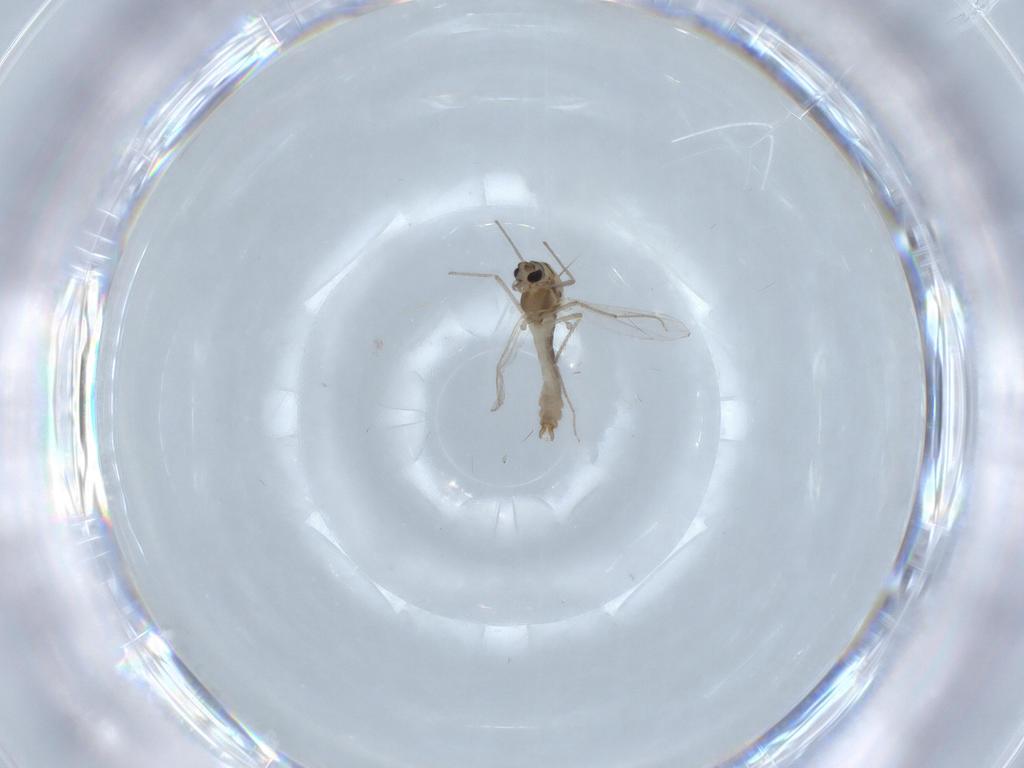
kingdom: Animalia
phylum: Arthropoda
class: Insecta
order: Diptera
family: Chironomidae
